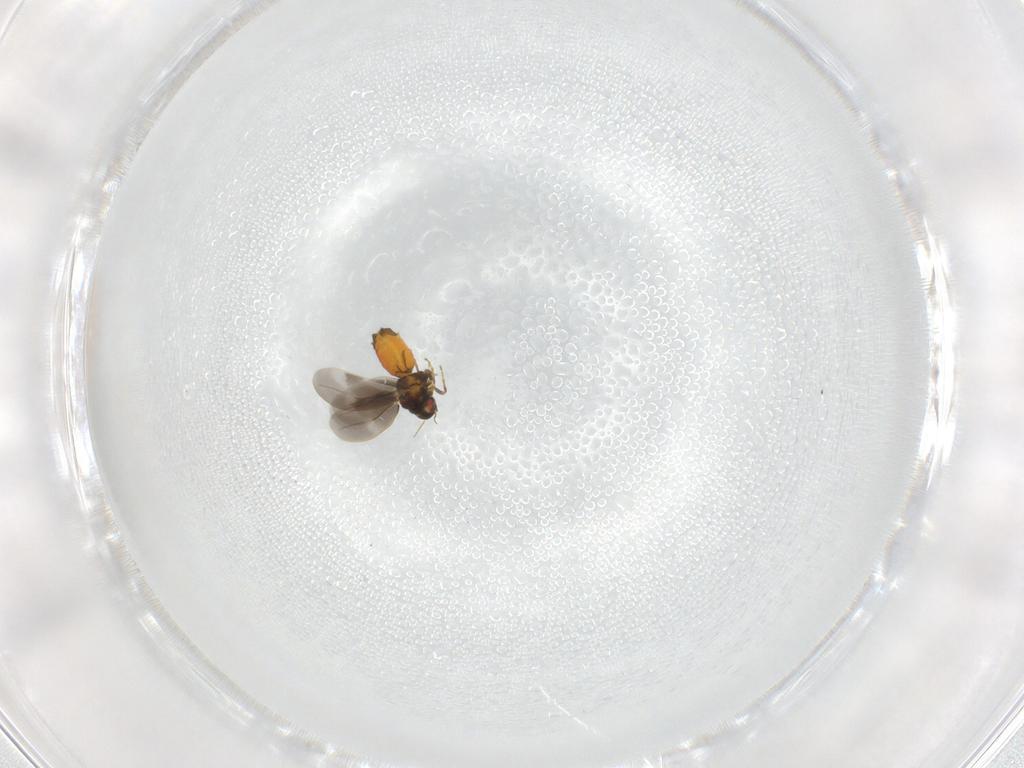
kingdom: Animalia
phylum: Arthropoda
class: Insecta
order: Hemiptera
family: Aleyrodidae
